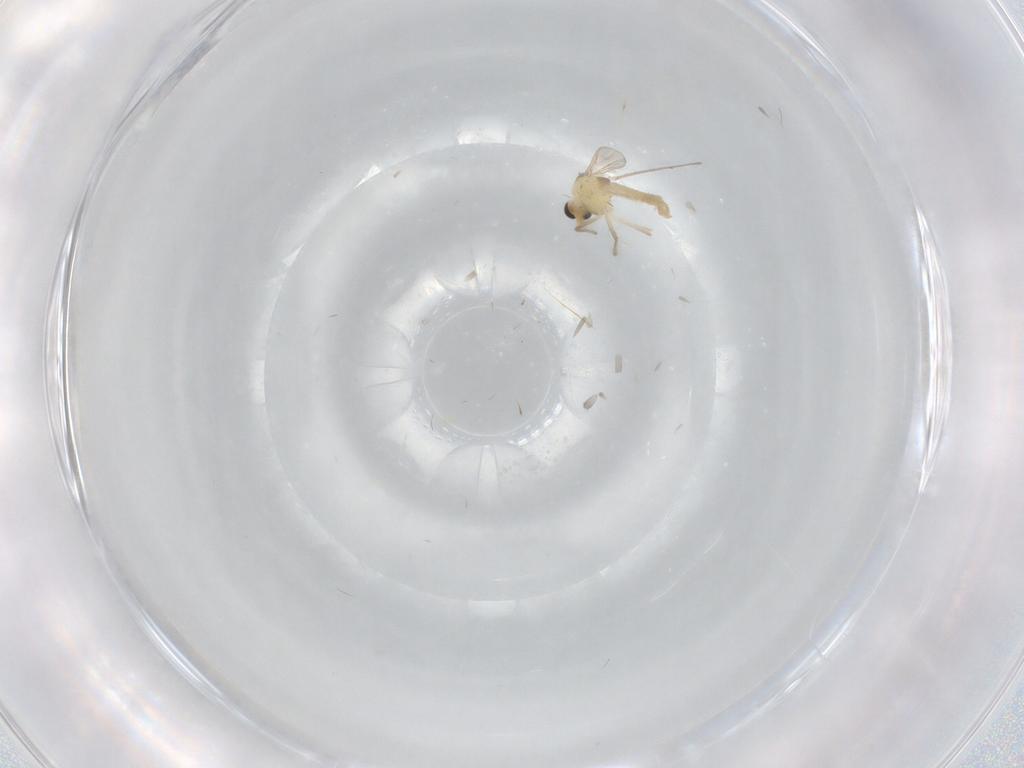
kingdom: Animalia
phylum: Arthropoda
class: Insecta
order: Diptera
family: Chironomidae
